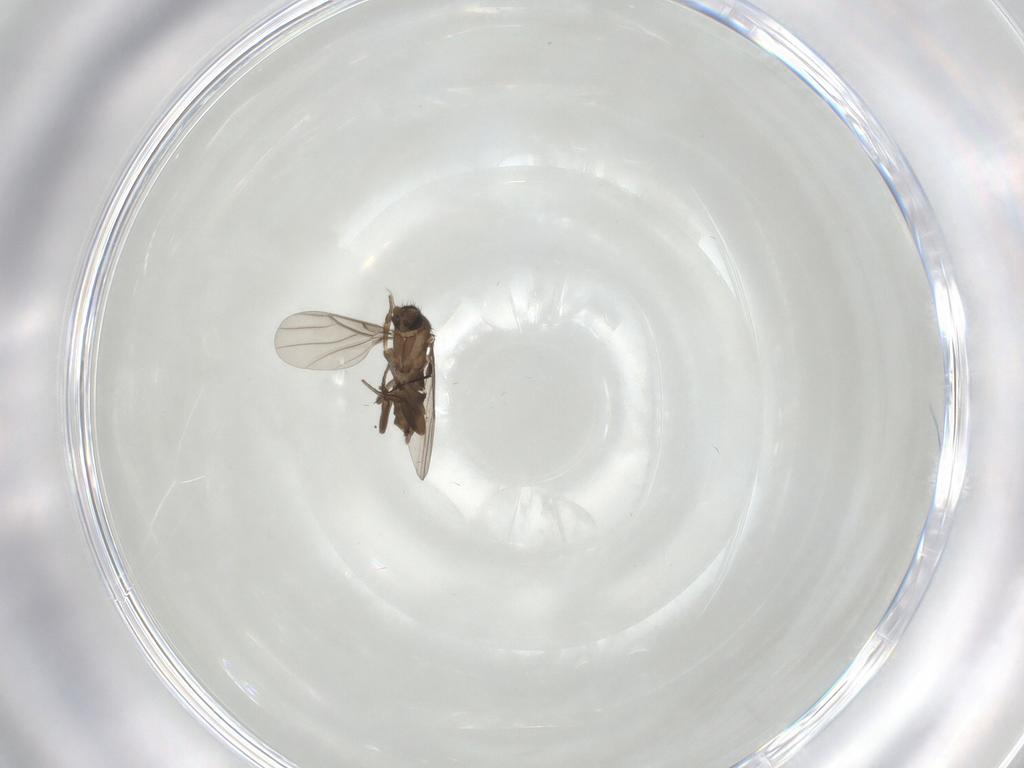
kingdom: Animalia
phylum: Arthropoda
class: Insecta
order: Diptera
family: Phoridae
